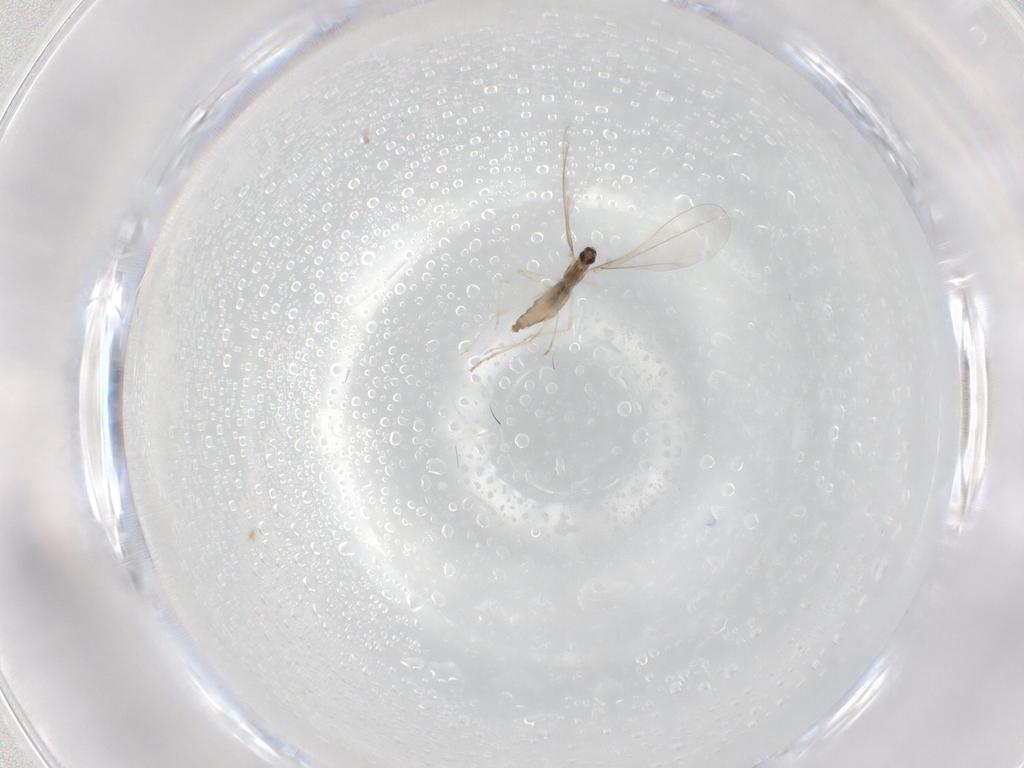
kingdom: Animalia
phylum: Arthropoda
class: Insecta
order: Diptera
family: Cecidomyiidae
